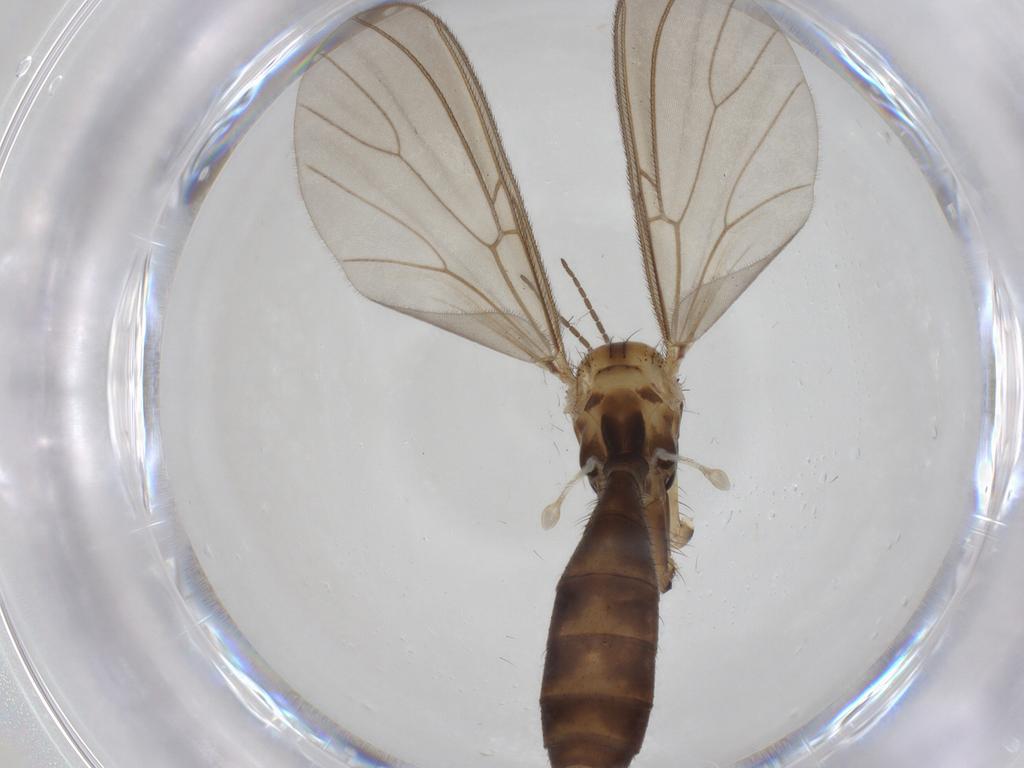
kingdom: Animalia
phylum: Arthropoda
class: Insecta
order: Diptera
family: Mycetophilidae
